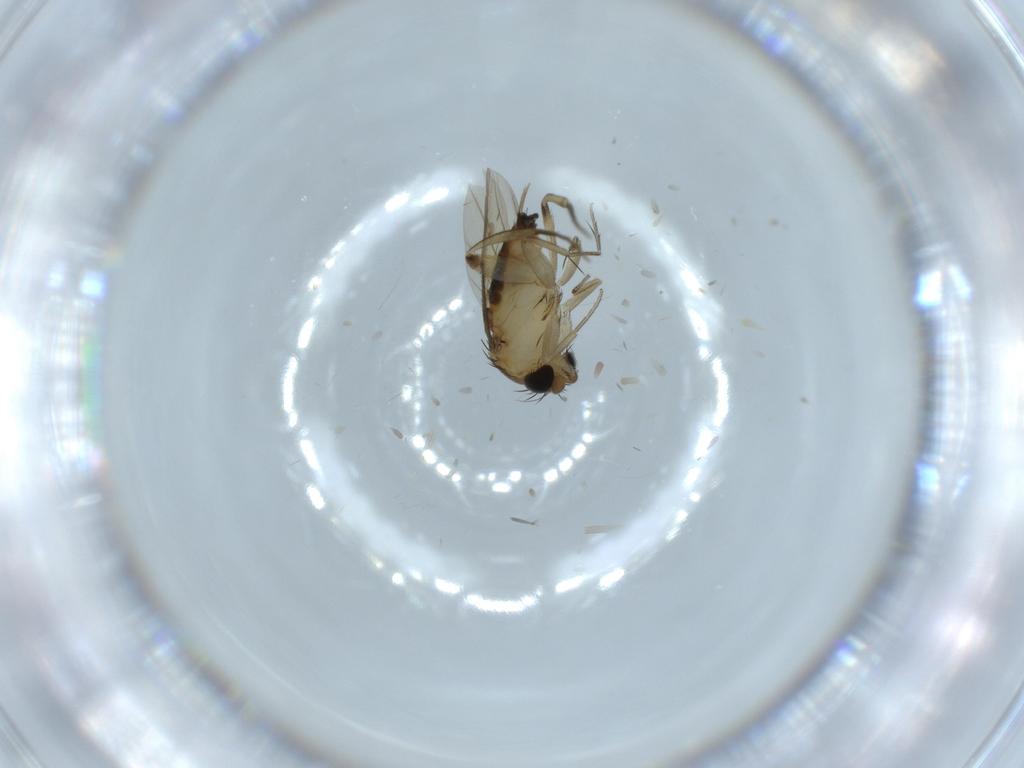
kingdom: Animalia
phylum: Arthropoda
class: Insecta
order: Diptera
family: Phoridae
